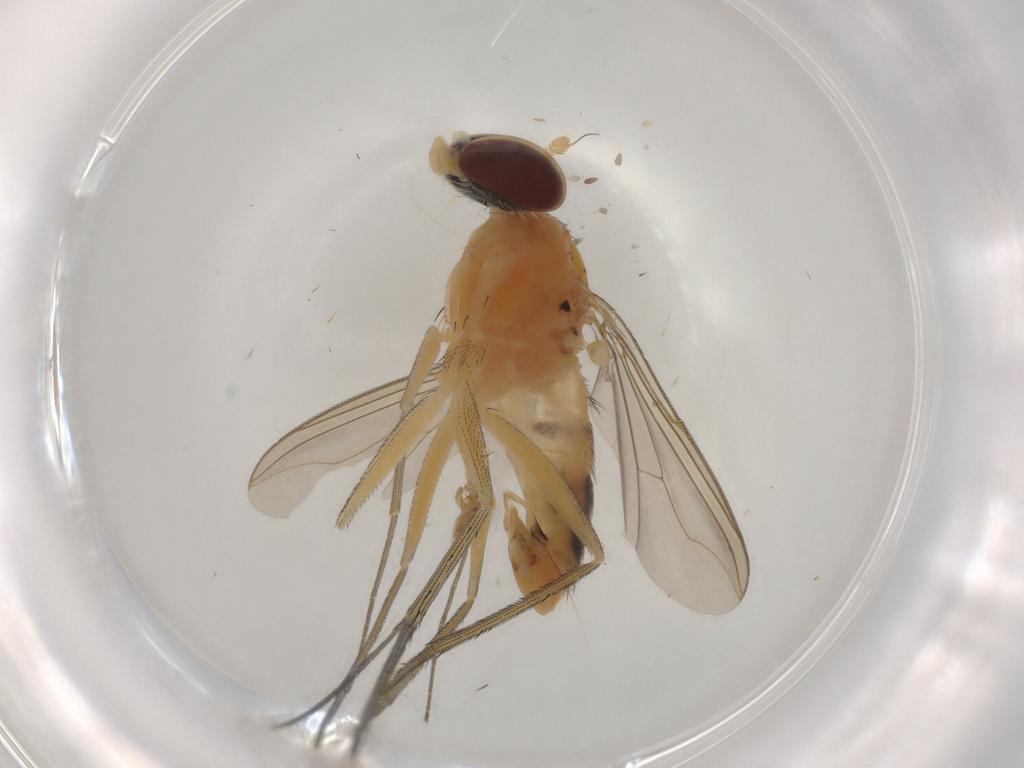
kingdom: Animalia
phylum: Arthropoda
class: Insecta
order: Diptera
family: Dolichopodidae
